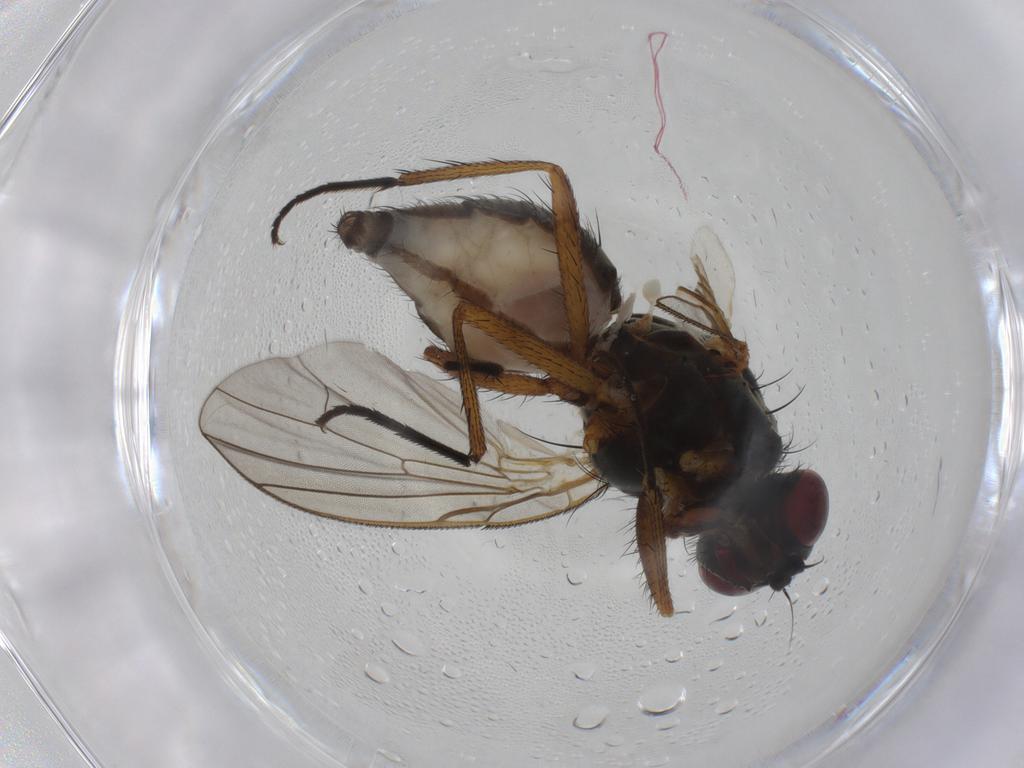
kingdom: Animalia
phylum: Arthropoda
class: Insecta
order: Diptera
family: Anthomyiidae
